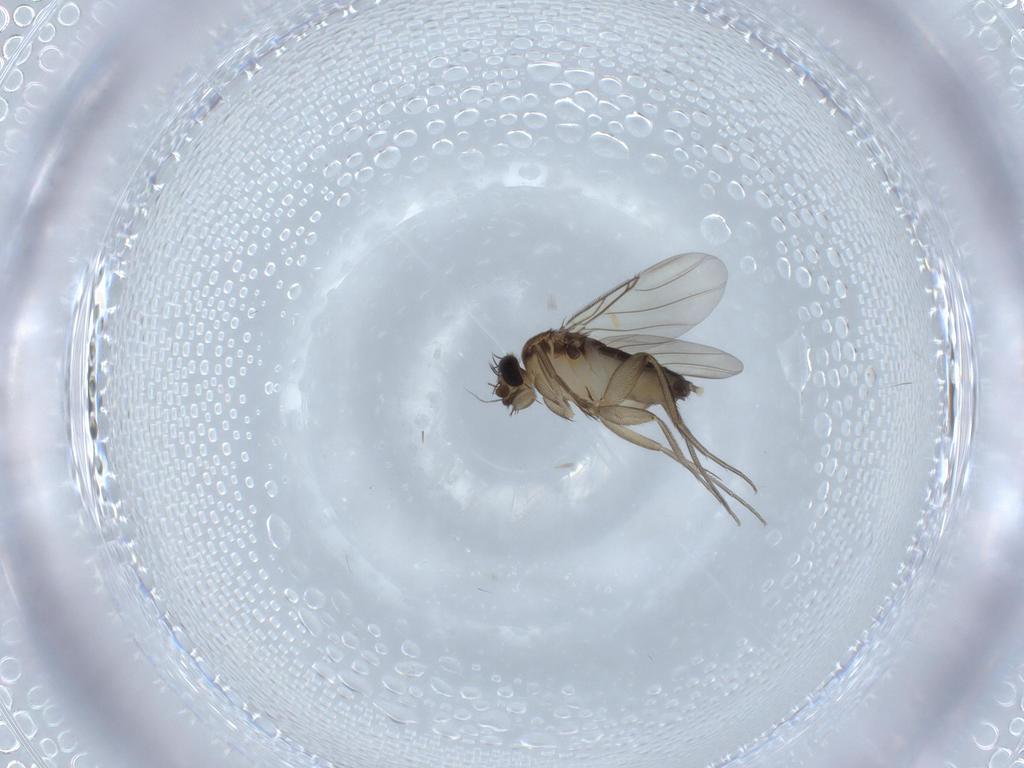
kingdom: Animalia
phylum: Arthropoda
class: Insecta
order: Diptera
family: Phoridae
